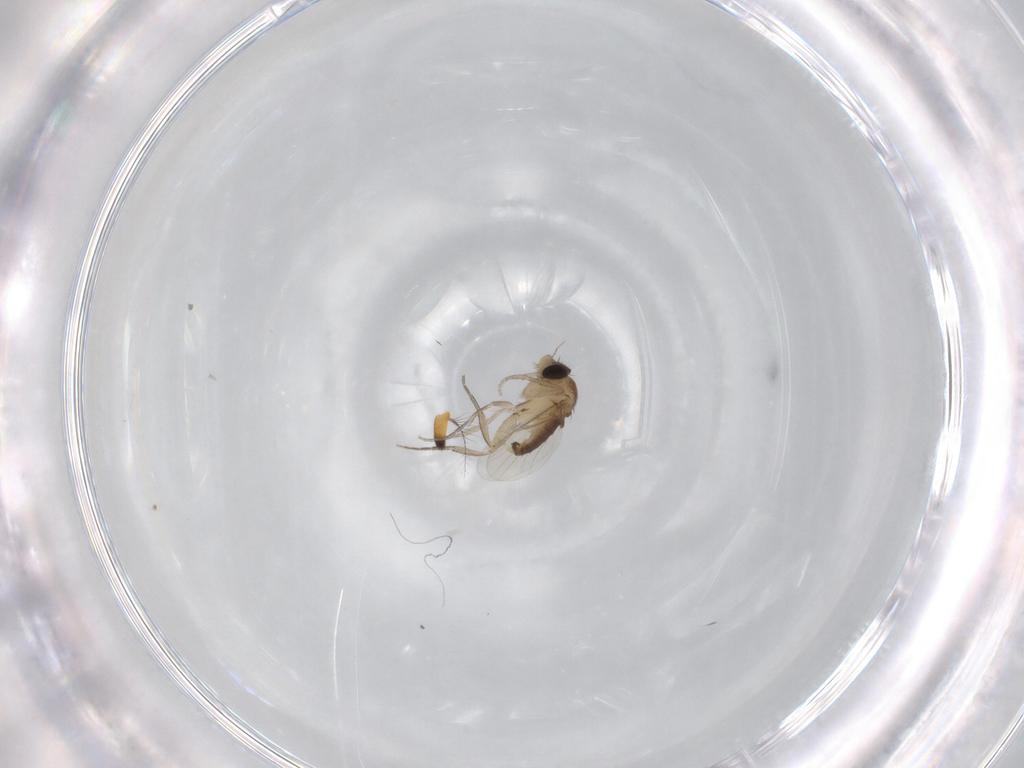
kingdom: Animalia
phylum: Arthropoda
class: Insecta
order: Diptera
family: Lauxaniidae
